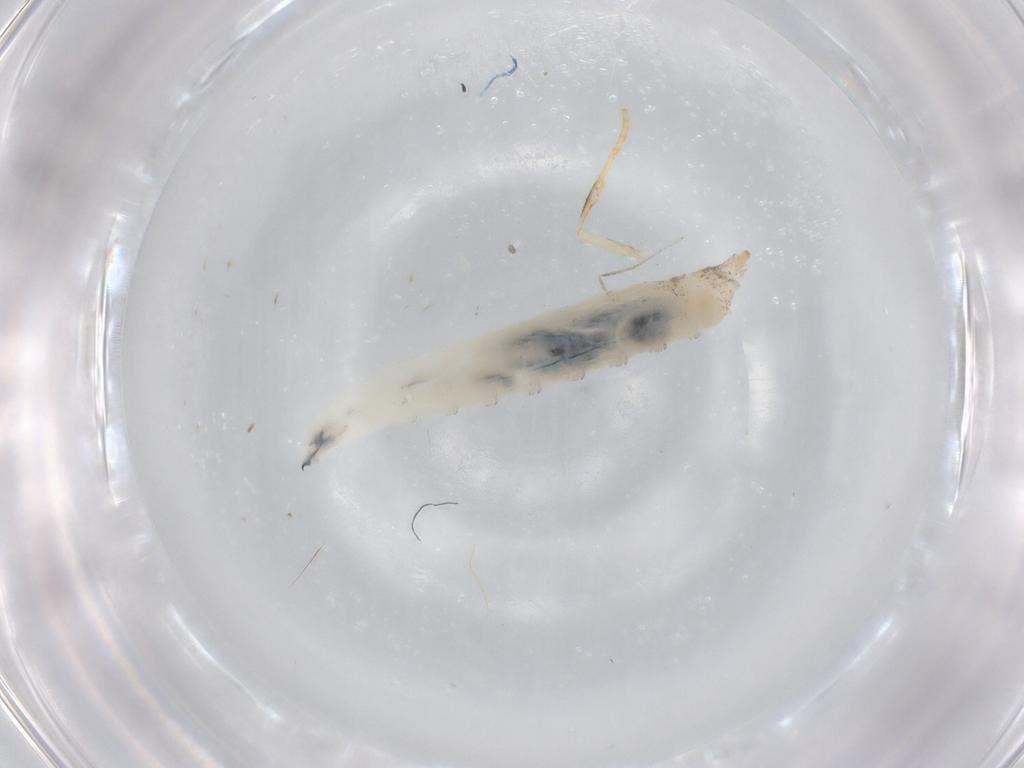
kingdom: Animalia
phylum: Arthropoda
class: Insecta
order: Diptera
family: Drosophilidae
